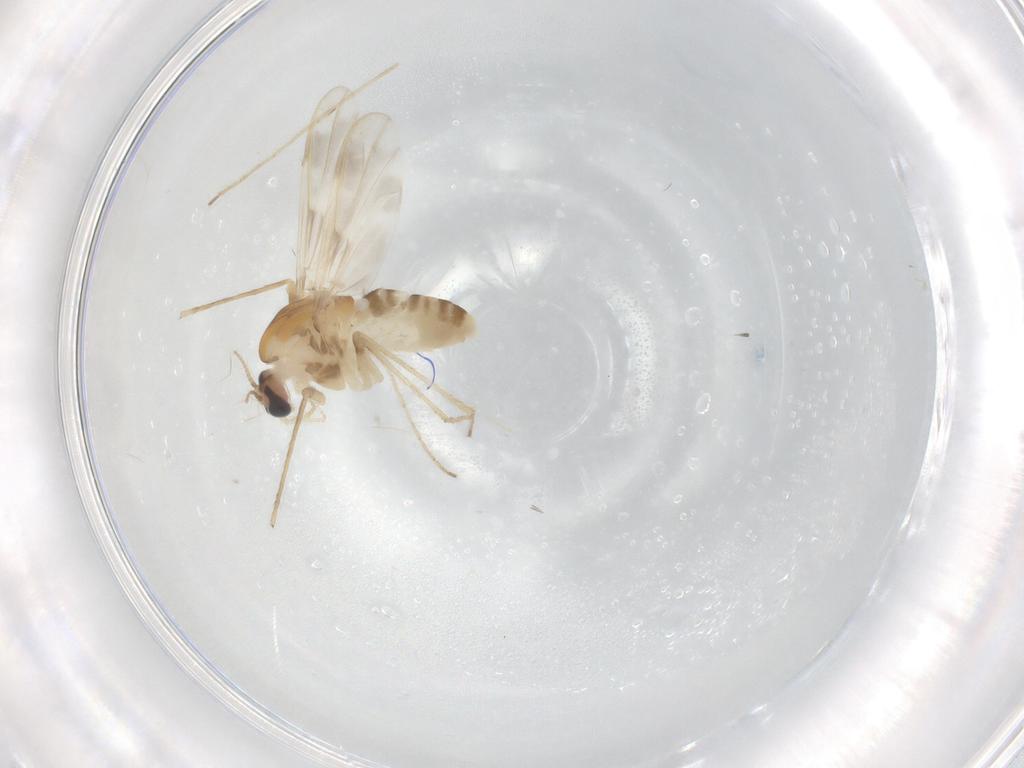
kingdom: Animalia
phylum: Arthropoda
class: Insecta
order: Diptera
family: Chironomidae
